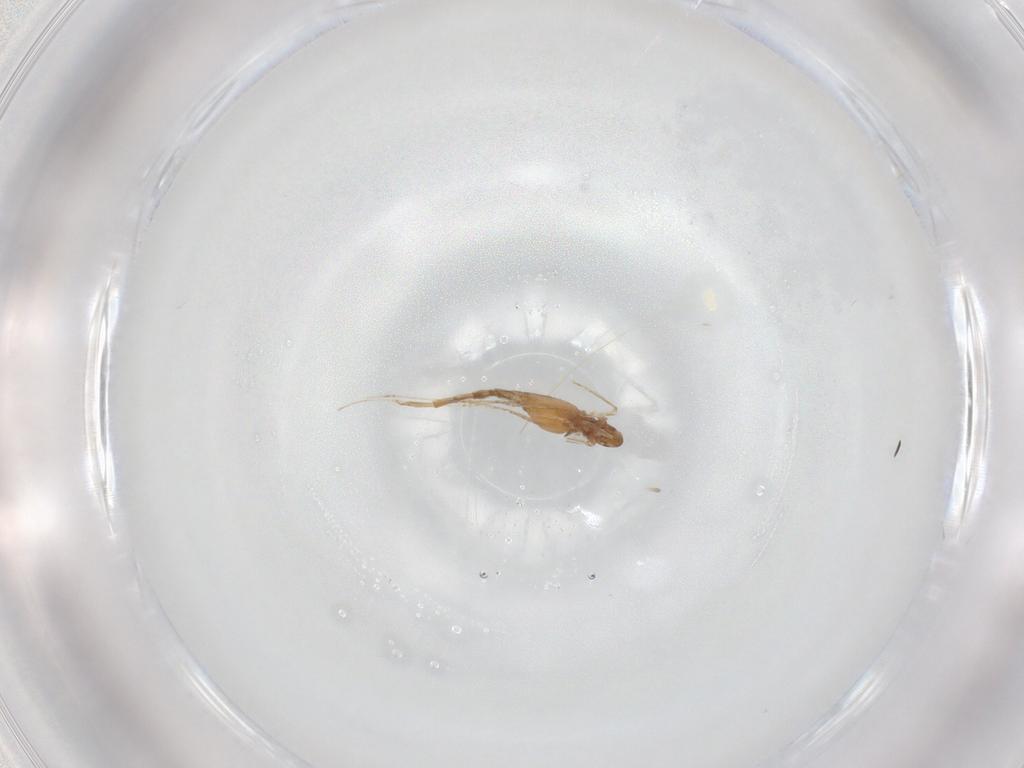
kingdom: Animalia
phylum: Arthropoda
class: Insecta
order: Diptera
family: Cecidomyiidae
